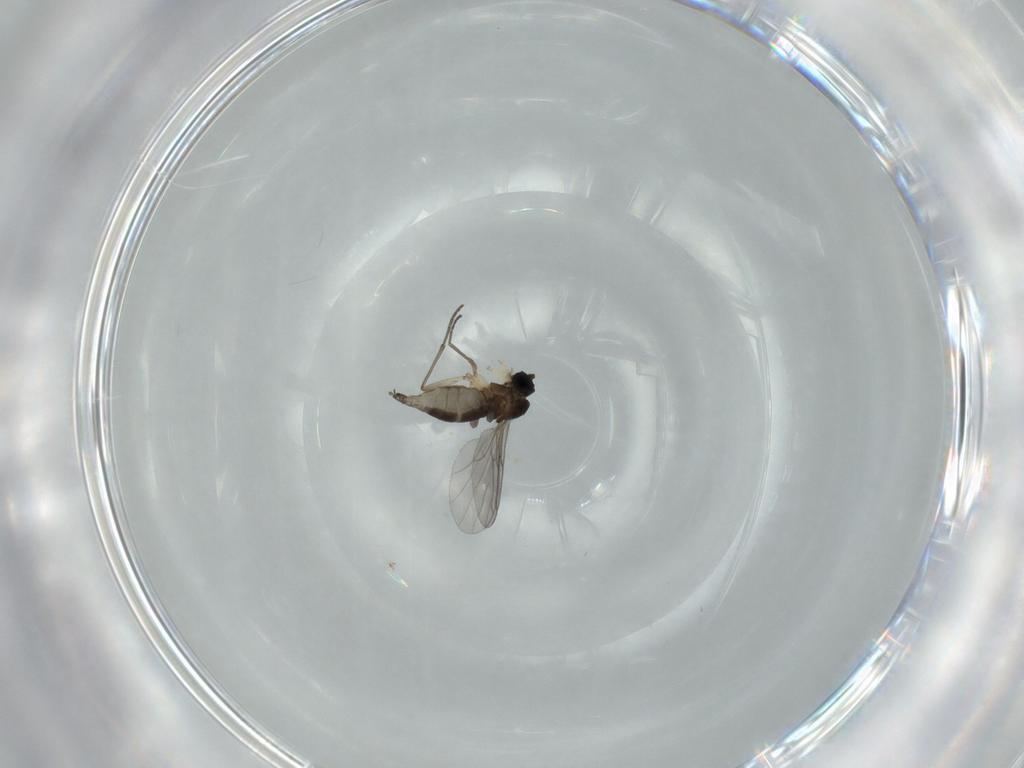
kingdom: Animalia
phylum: Arthropoda
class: Insecta
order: Diptera
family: Sciaridae
